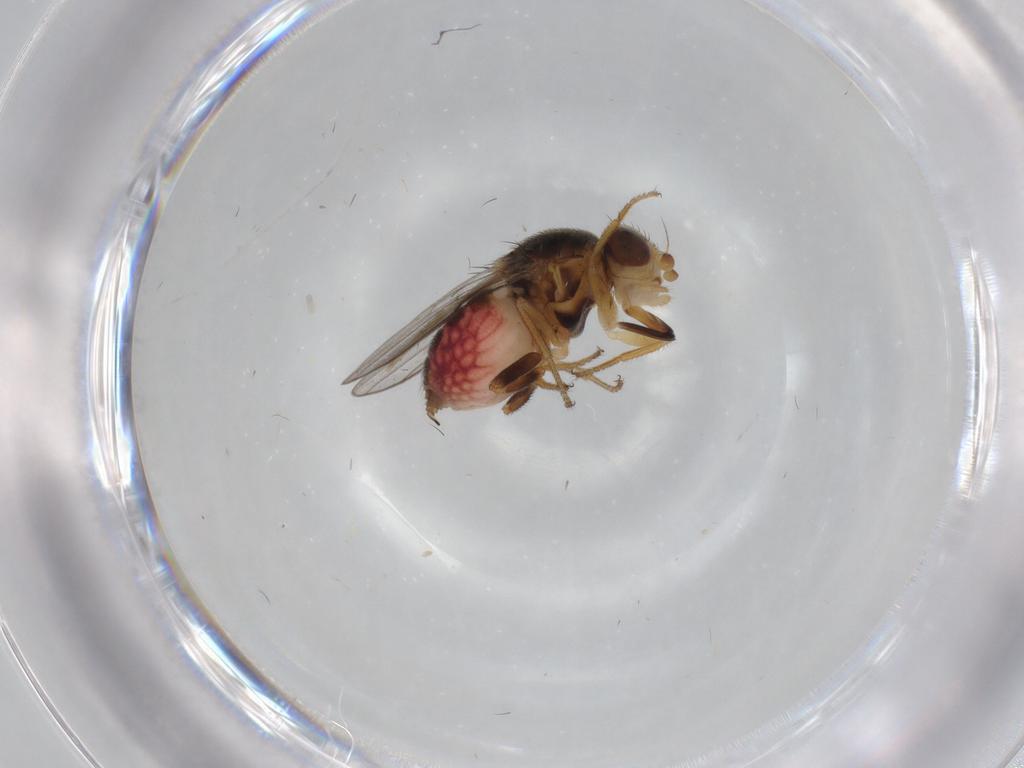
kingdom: Animalia
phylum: Arthropoda
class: Insecta
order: Diptera
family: Chloropidae
